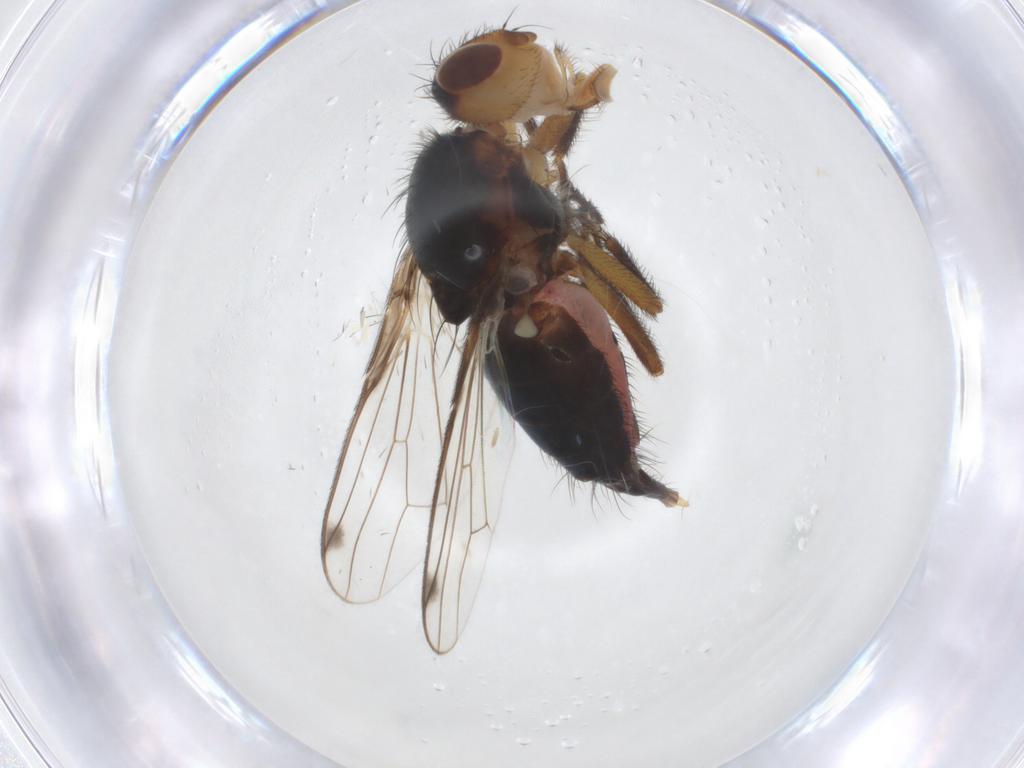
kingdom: Animalia
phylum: Arthropoda
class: Insecta
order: Diptera
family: Richardiidae
